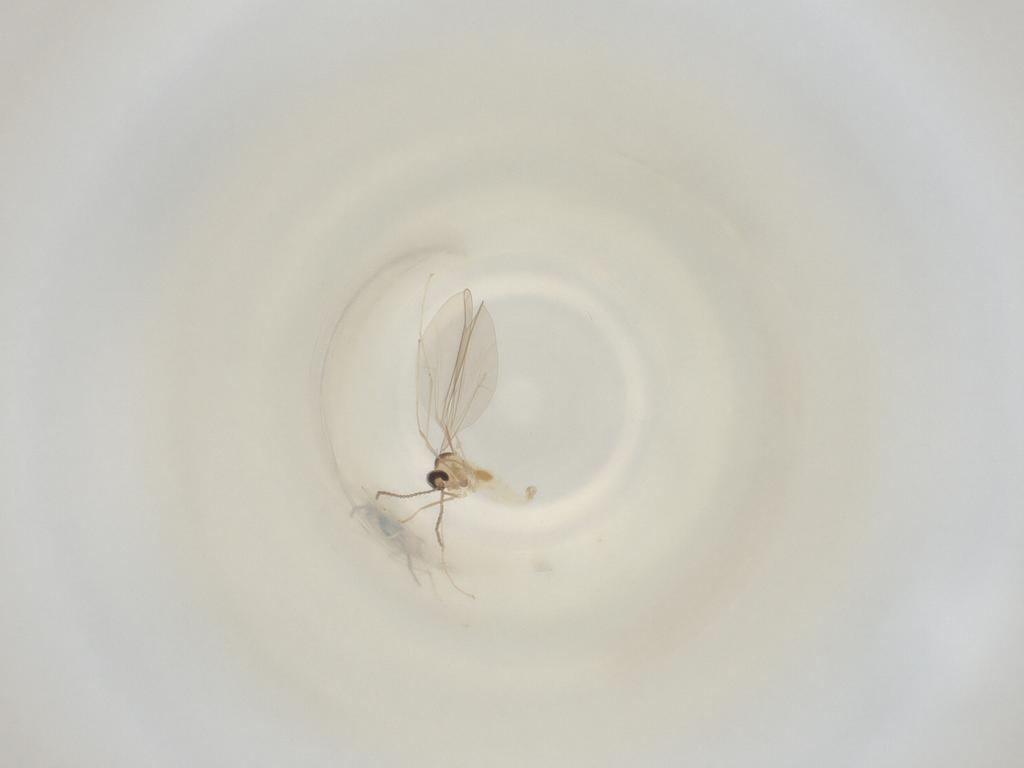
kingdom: Animalia
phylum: Arthropoda
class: Insecta
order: Diptera
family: Cecidomyiidae
